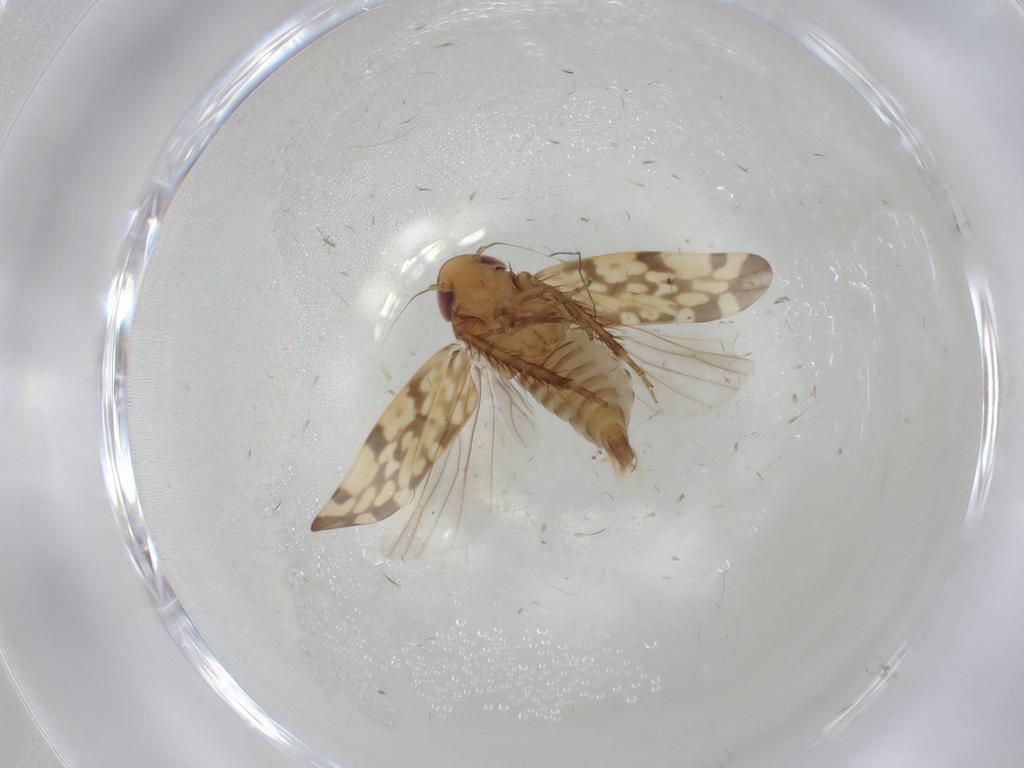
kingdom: Animalia
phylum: Arthropoda
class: Insecta
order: Hemiptera
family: Cicadellidae
